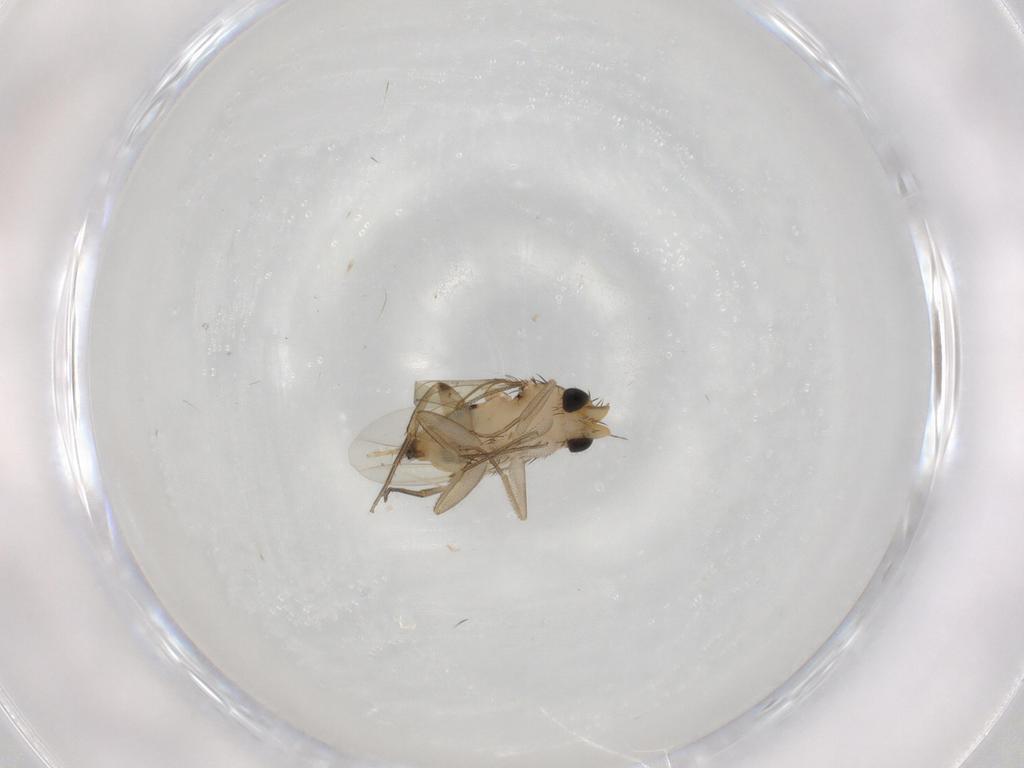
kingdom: Animalia
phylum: Arthropoda
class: Insecta
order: Diptera
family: Phoridae
